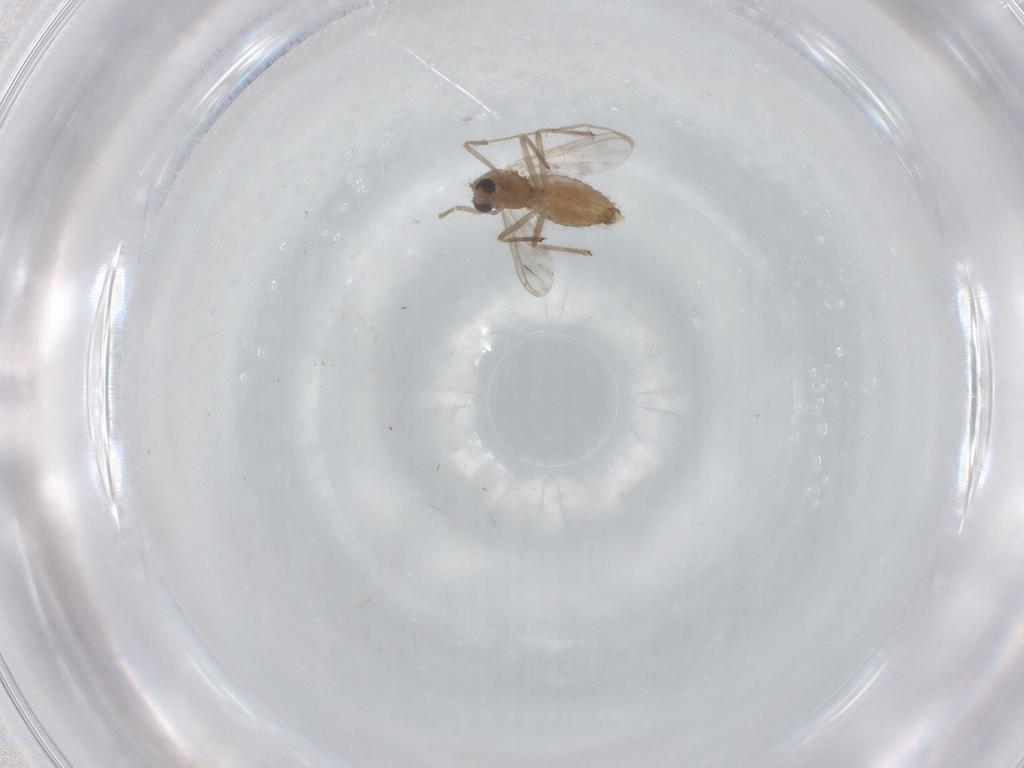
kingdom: Animalia
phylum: Arthropoda
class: Insecta
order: Diptera
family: Chironomidae
